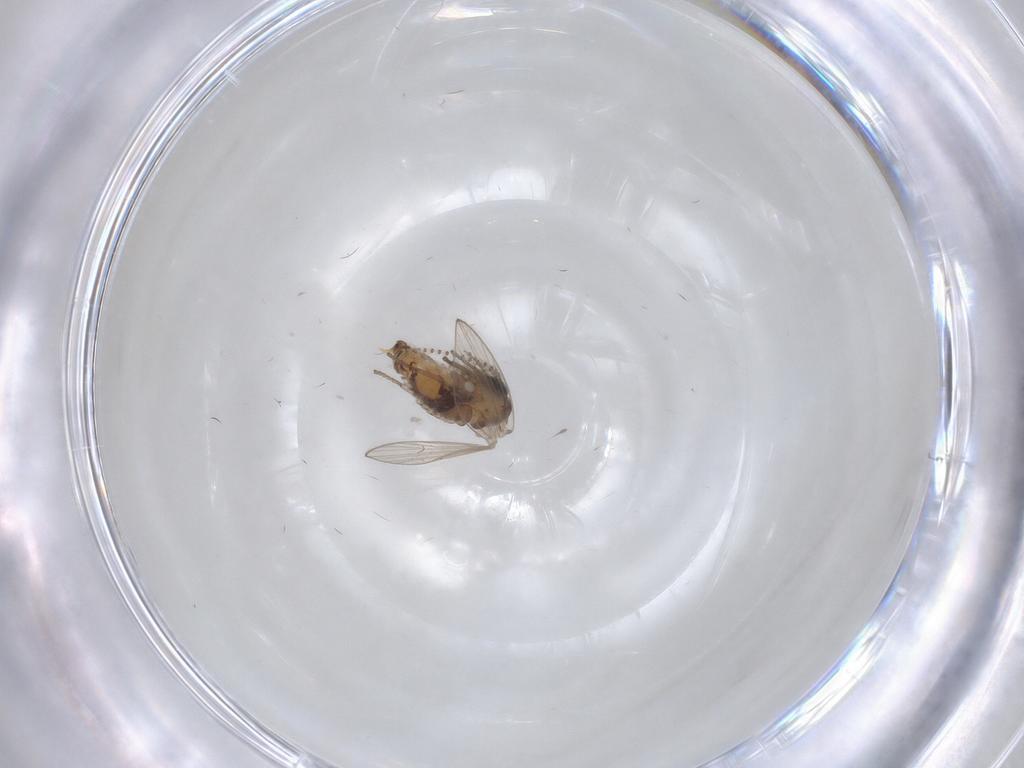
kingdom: Animalia
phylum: Arthropoda
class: Insecta
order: Diptera
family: Psychodidae
